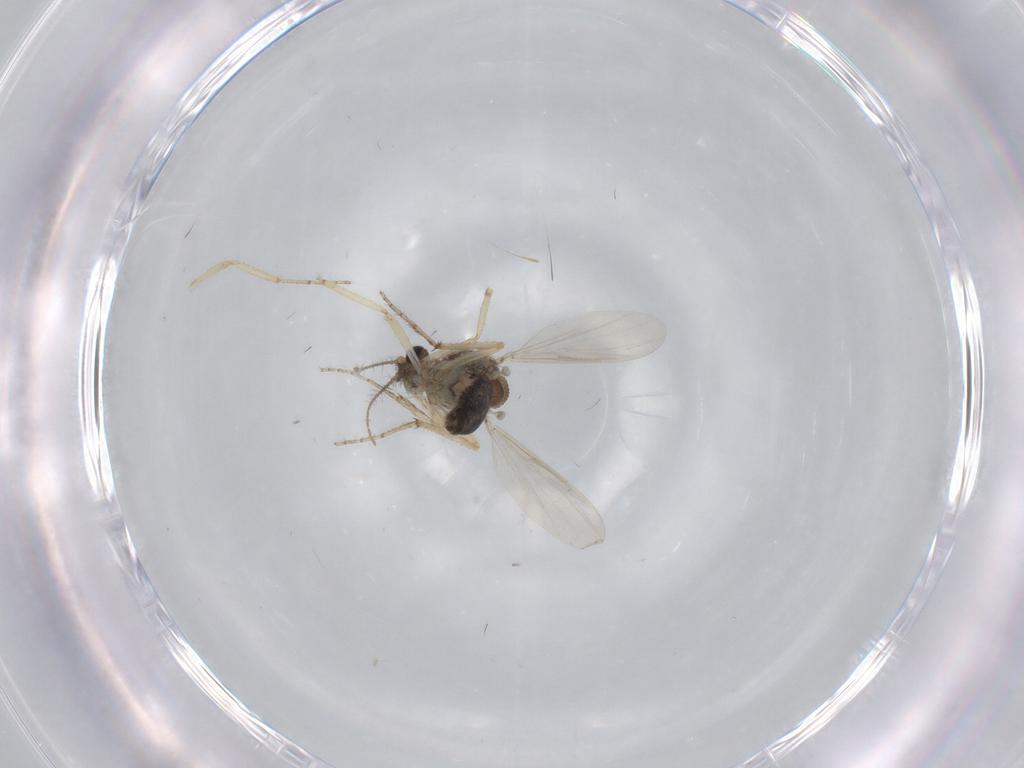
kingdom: Animalia
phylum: Arthropoda
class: Insecta
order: Diptera
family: Ceratopogonidae
